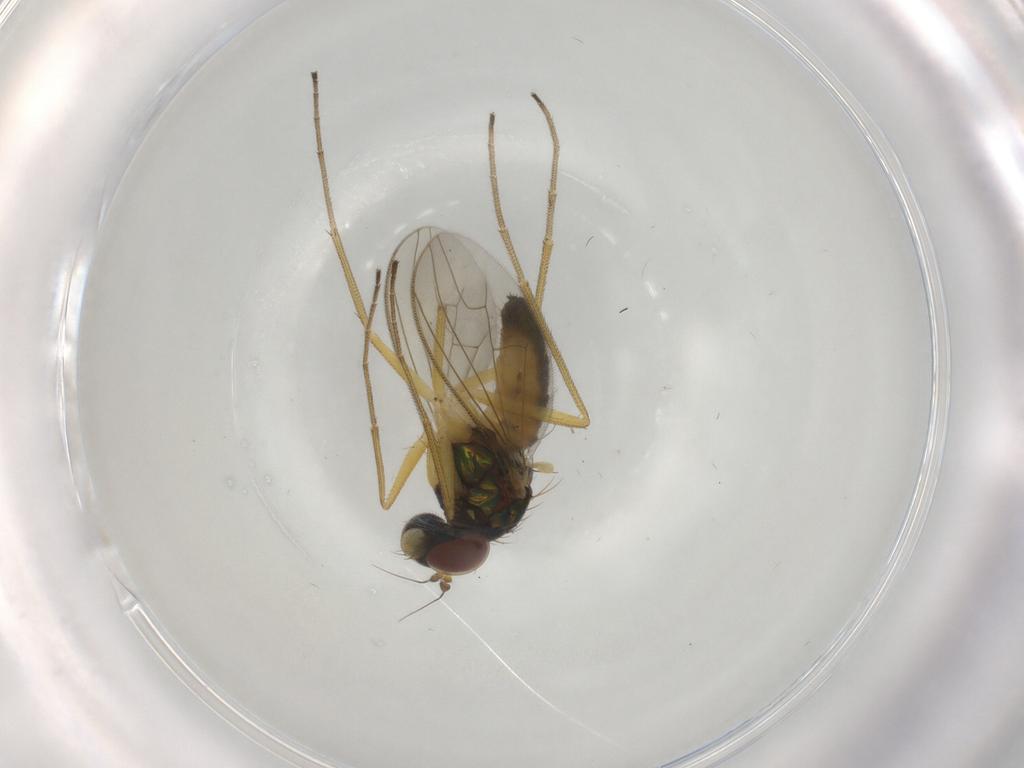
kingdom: Animalia
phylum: Arthropoda
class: Insecta
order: Diptera
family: Dolichopodidae
